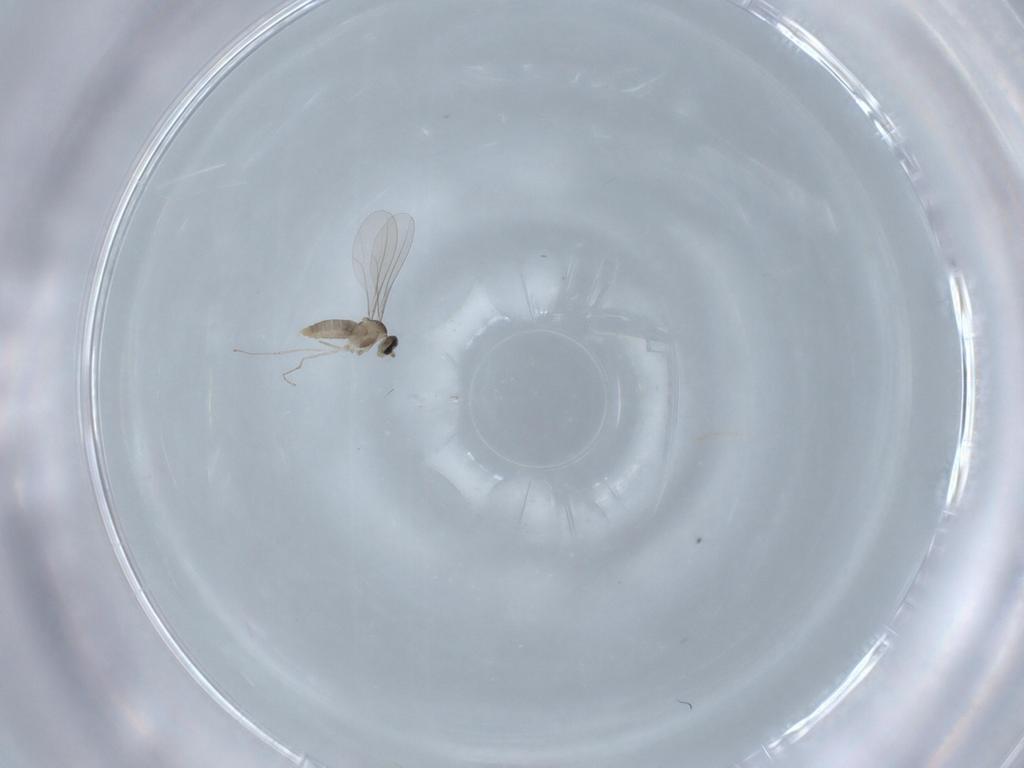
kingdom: Animalia
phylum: Arthropoda
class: Insecta
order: Diptera
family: Cecidomyiidae
